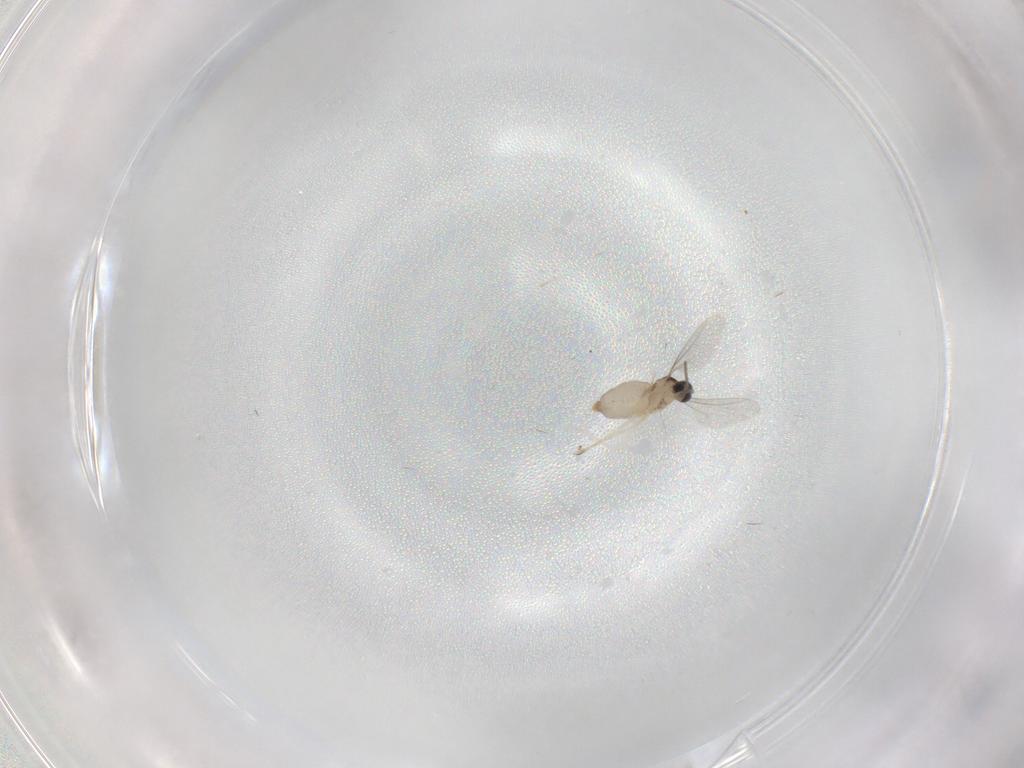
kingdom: Animalia
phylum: Arthropoda
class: Insecta
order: Diptera
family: Cecidomyiidae
